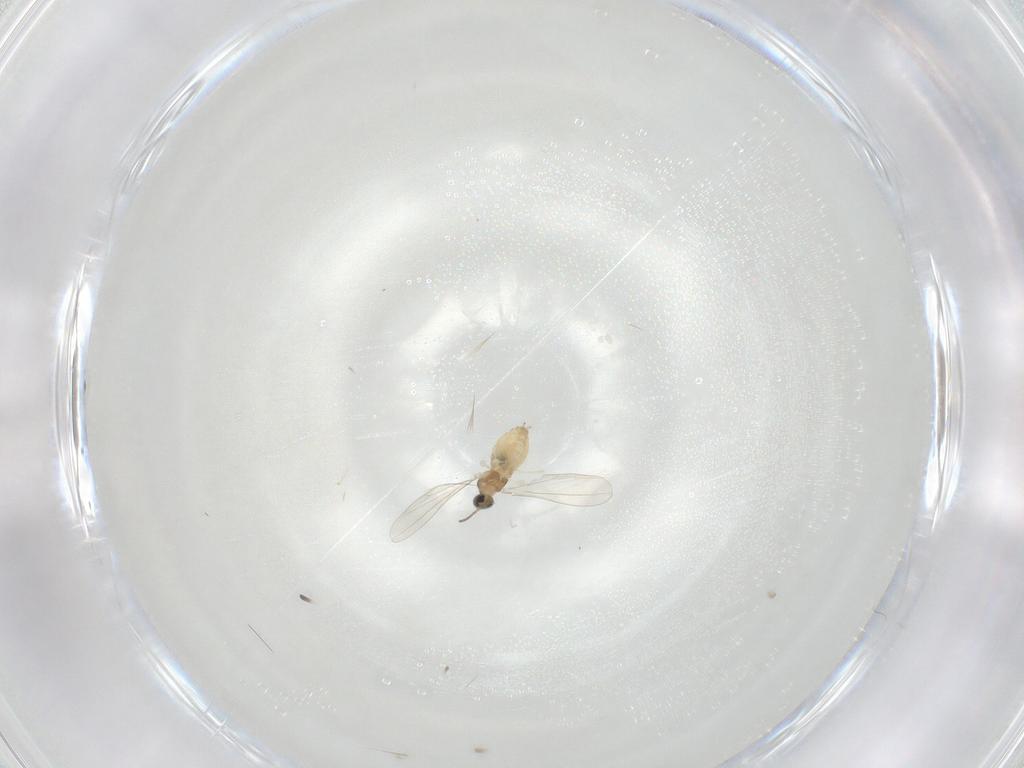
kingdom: Animalia
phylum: Arthropoda
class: Insecta
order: Diptera
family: Cecidomyiidae
